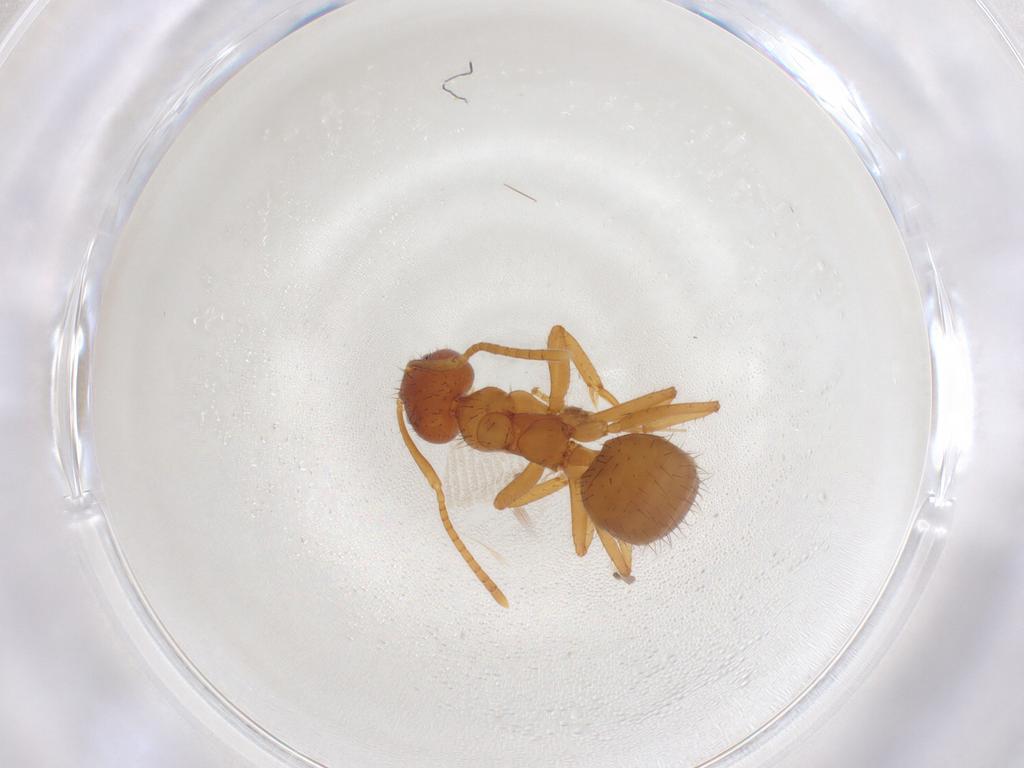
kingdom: Animalia
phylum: Arthropoda
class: Insecta
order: Hymenoptera
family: Formicidae
